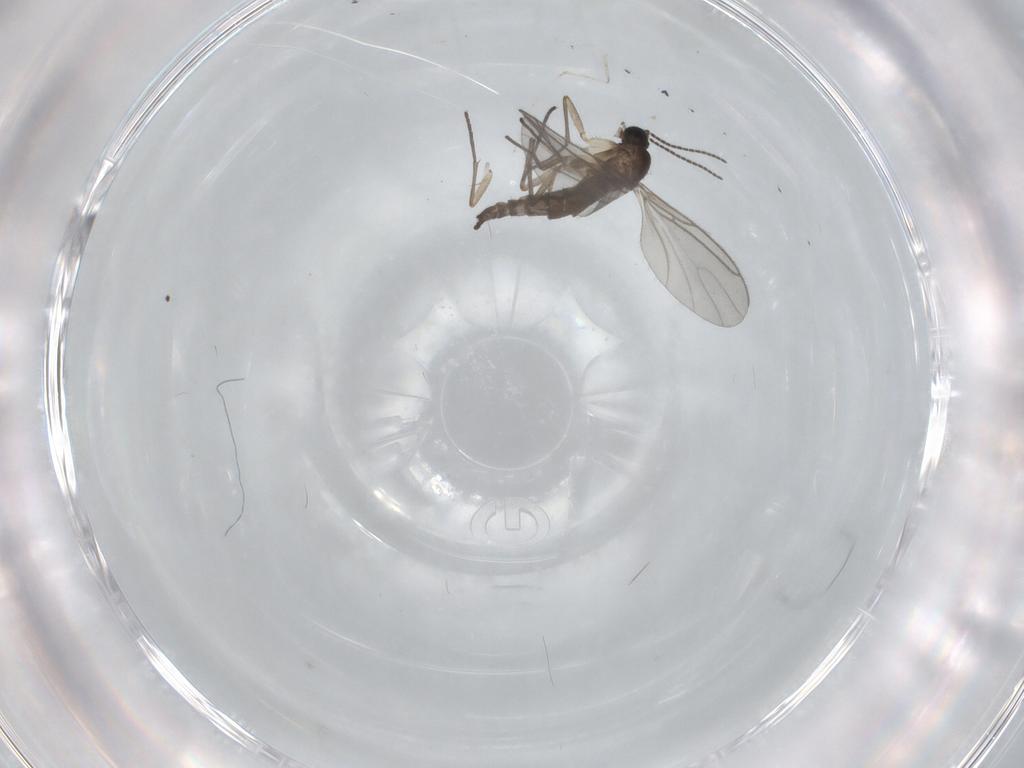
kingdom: Animalia
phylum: Arthropoda
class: Insecta
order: Diptera
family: Sciaridae
